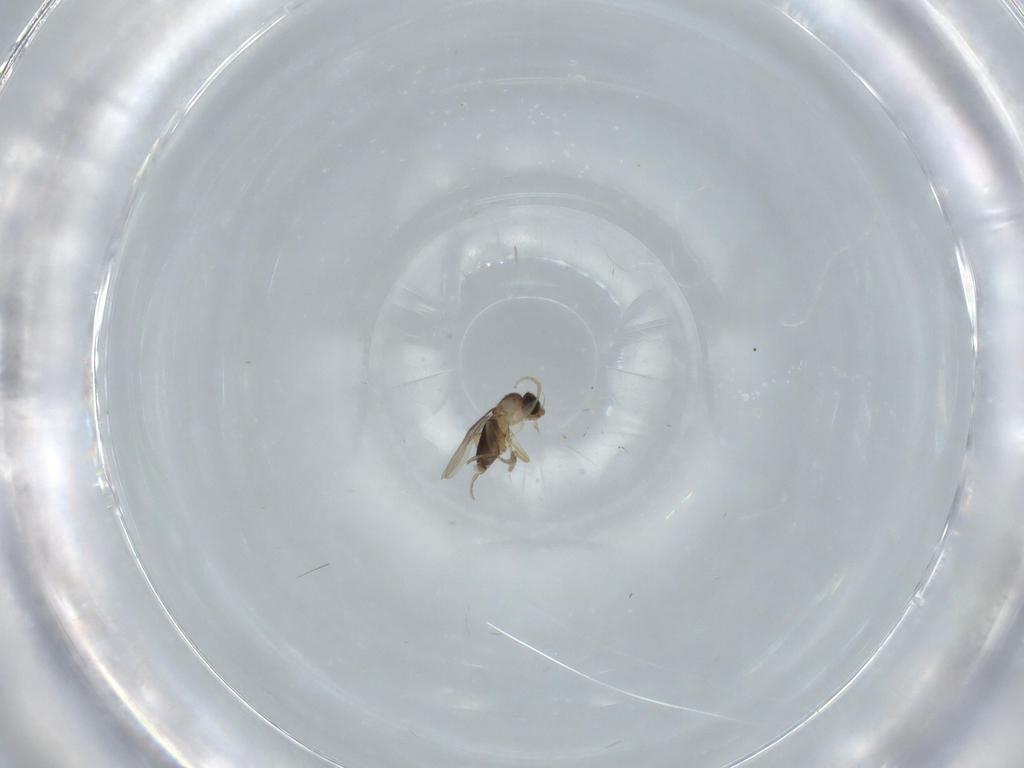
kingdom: Animalia
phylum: Arthropoda
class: Insecta
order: Diptera
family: Phoridae
